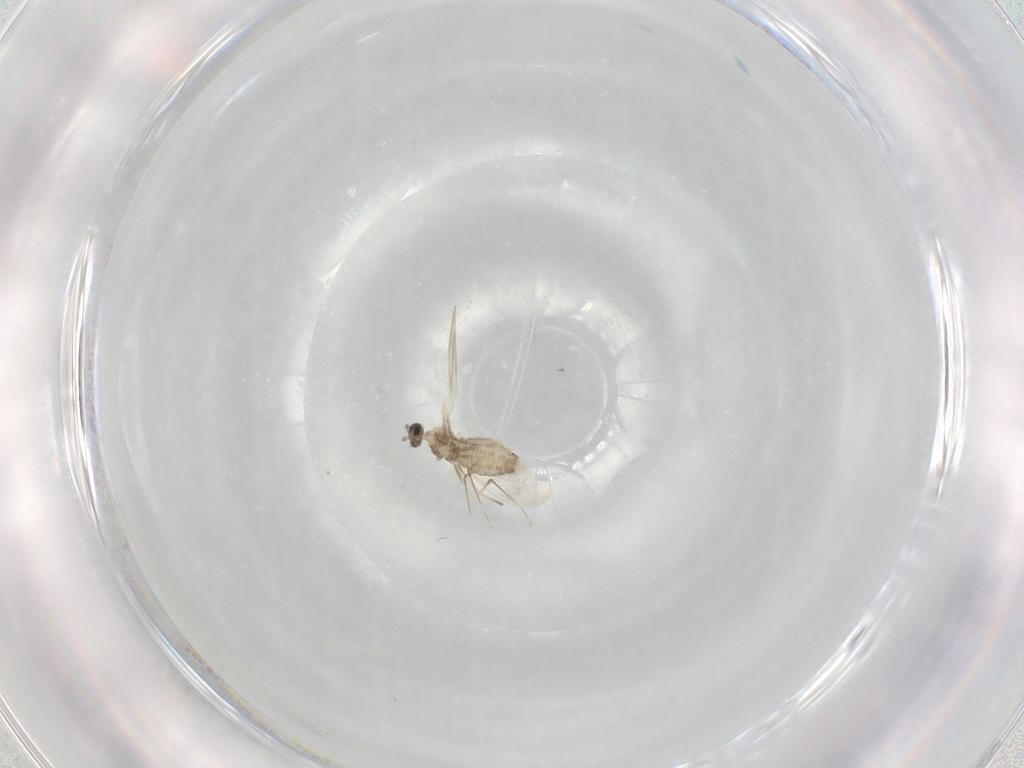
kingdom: Animalia
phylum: Arthropoda
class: Insecta
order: Diptera
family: Cecidomyiidae
